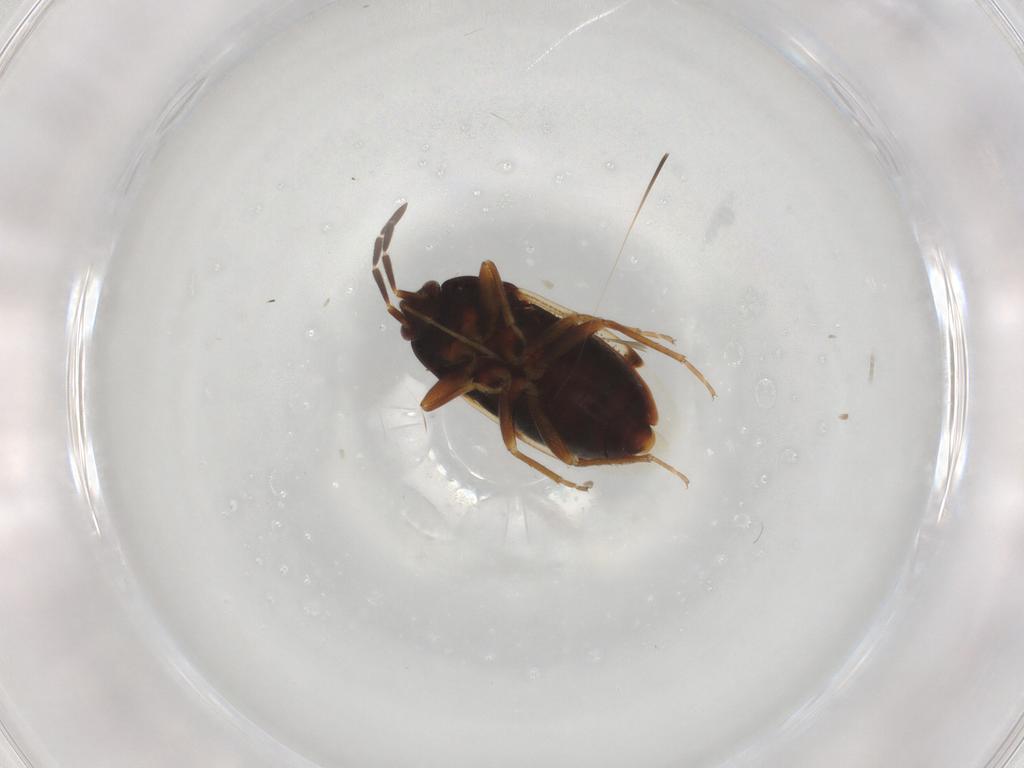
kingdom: Animalia
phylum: Arthropoda
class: Insecta
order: Hemiptera
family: Rhyparochromidae
